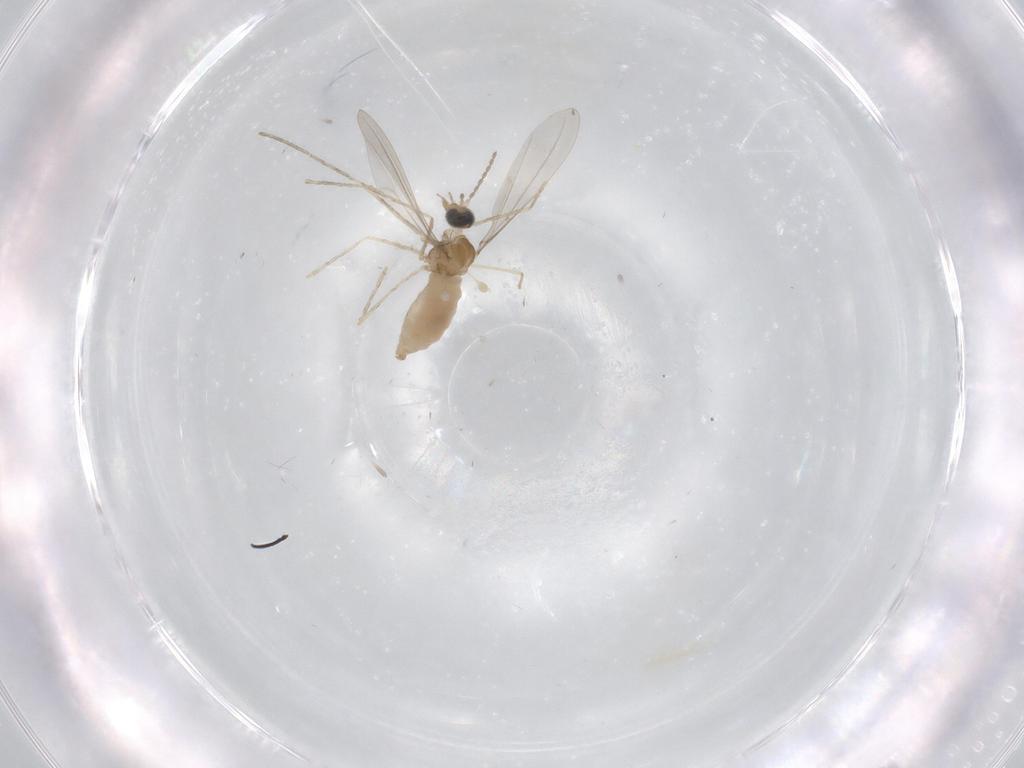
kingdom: Animalia
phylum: Arthropoda
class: Insecta
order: Diptera
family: Cecidomyiidae
